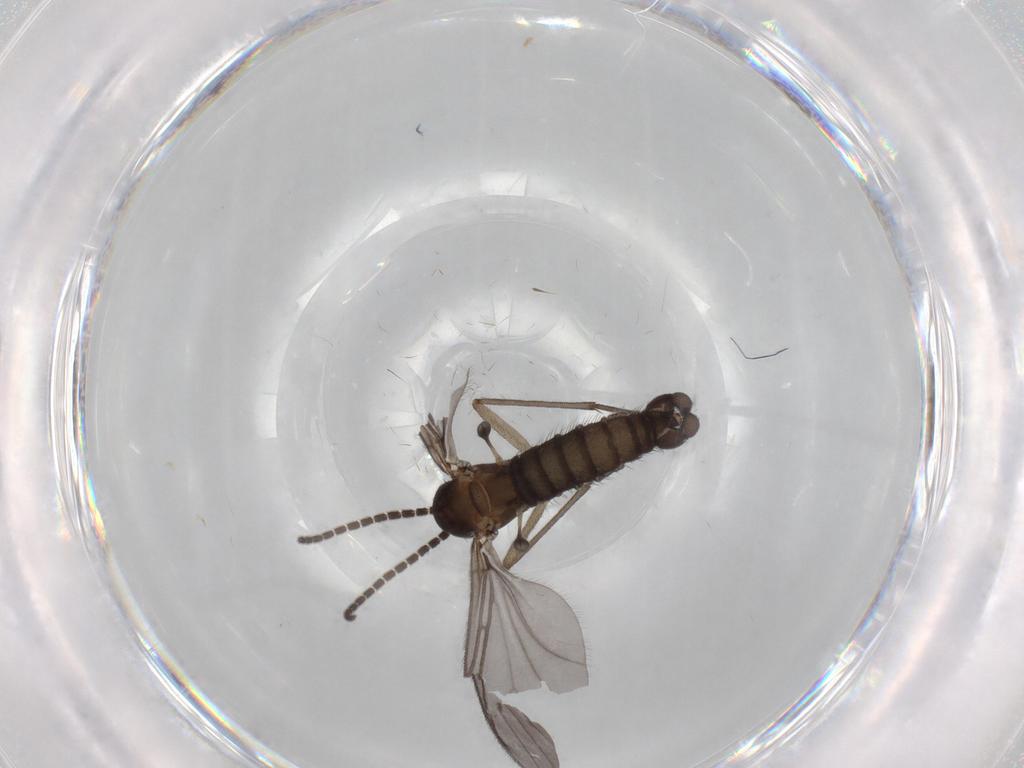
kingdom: Animalia
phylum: Arthropoda
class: Insecta
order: Diptera
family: Sciaridae
